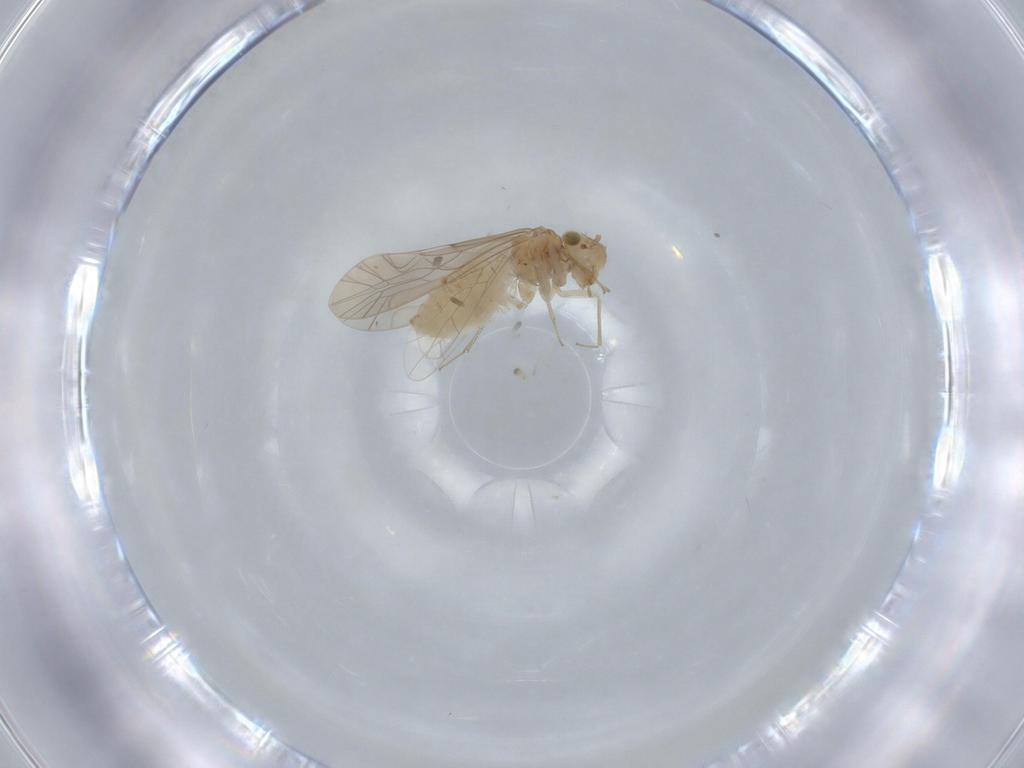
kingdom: Animalia
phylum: Arthropoda
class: Insecta
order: Psocodea
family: Lachesillidae
